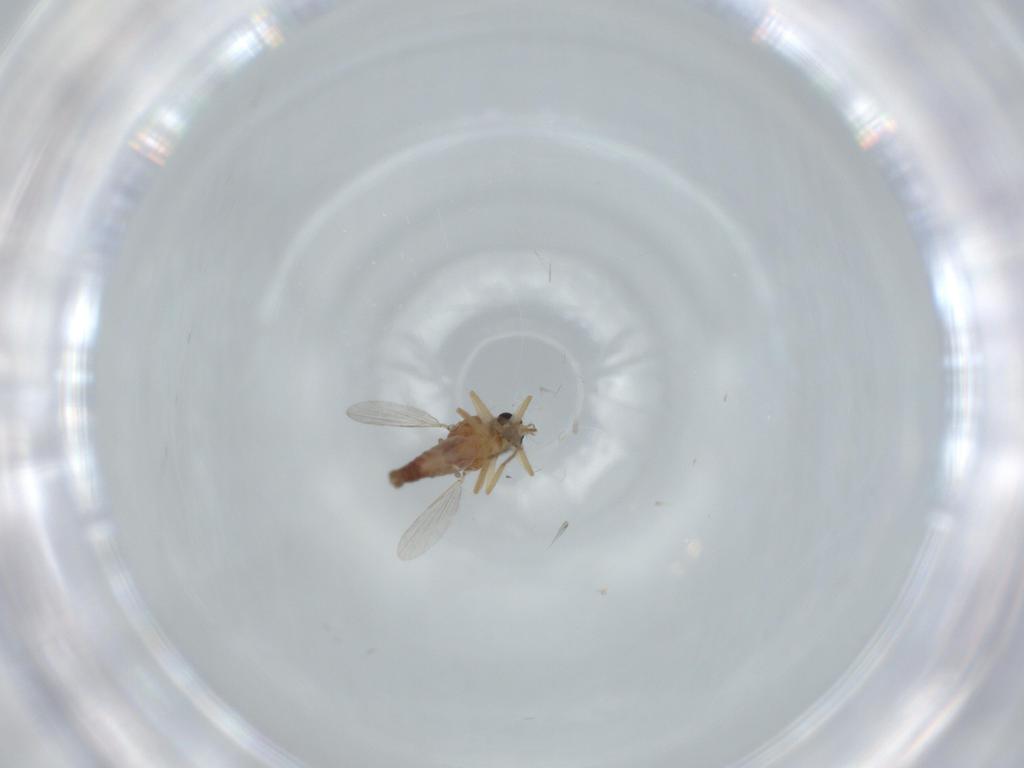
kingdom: Animalia
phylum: Arthropoda
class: Insecta
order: Diptera
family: Ceratopogonidae
